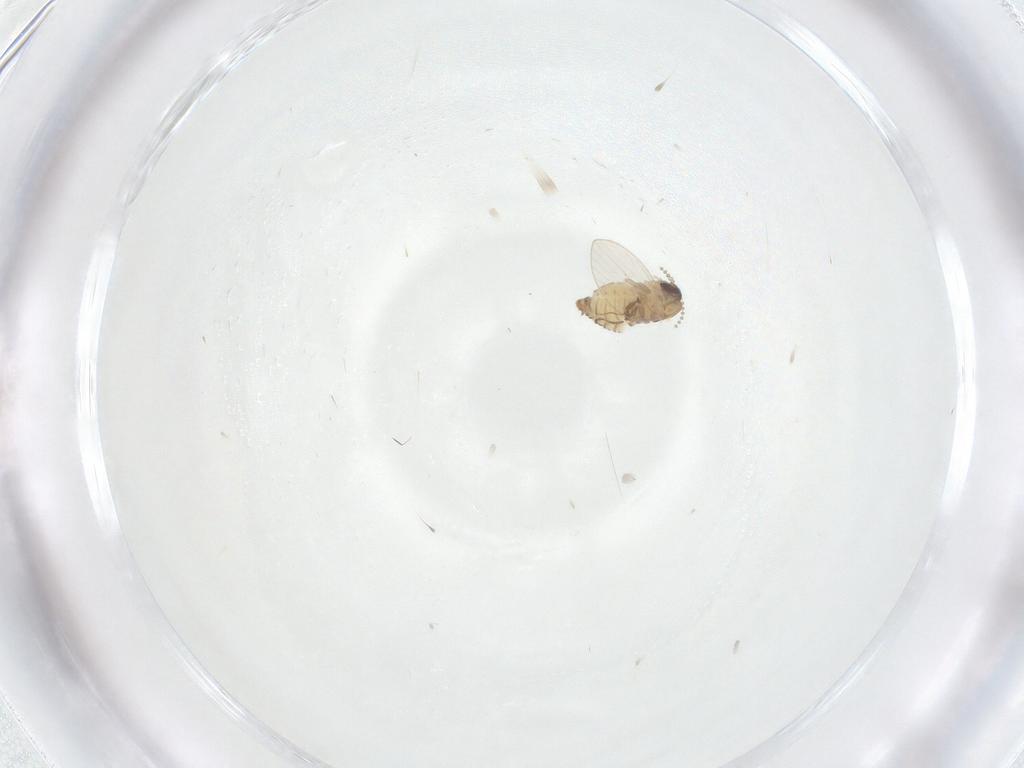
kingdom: Animalia
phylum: Arthropoda
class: Insecta
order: Diptera
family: Psychodidae
